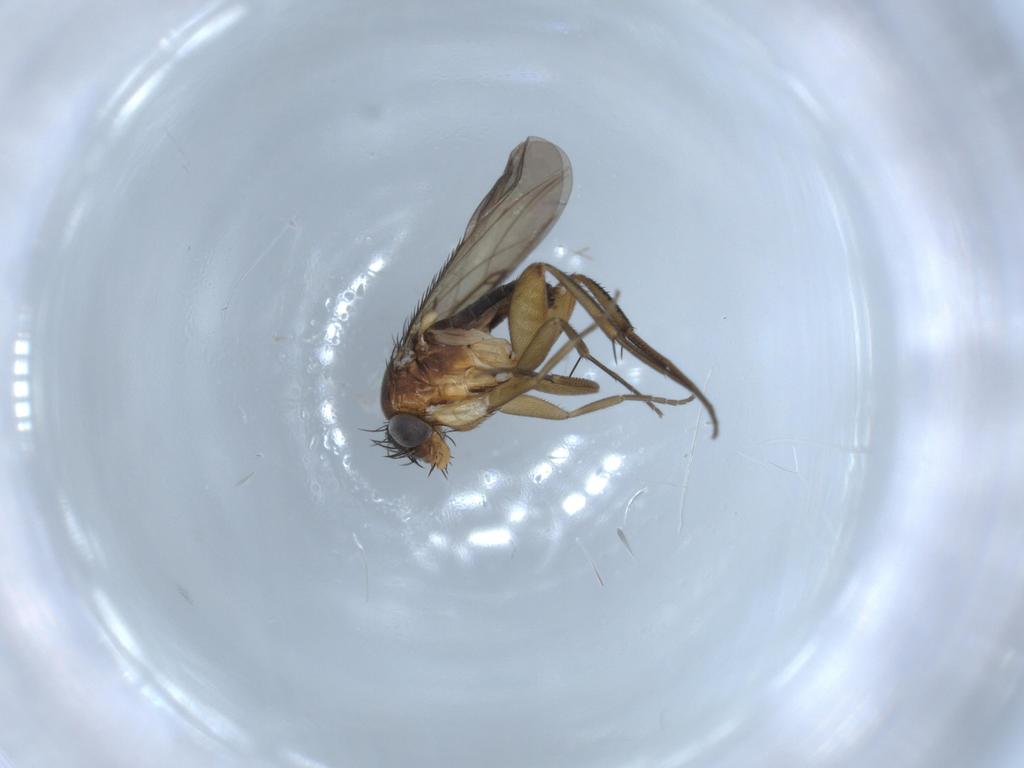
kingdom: Animalia
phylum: Arthropoda
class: Insecta
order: Diptera
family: Phoridae
